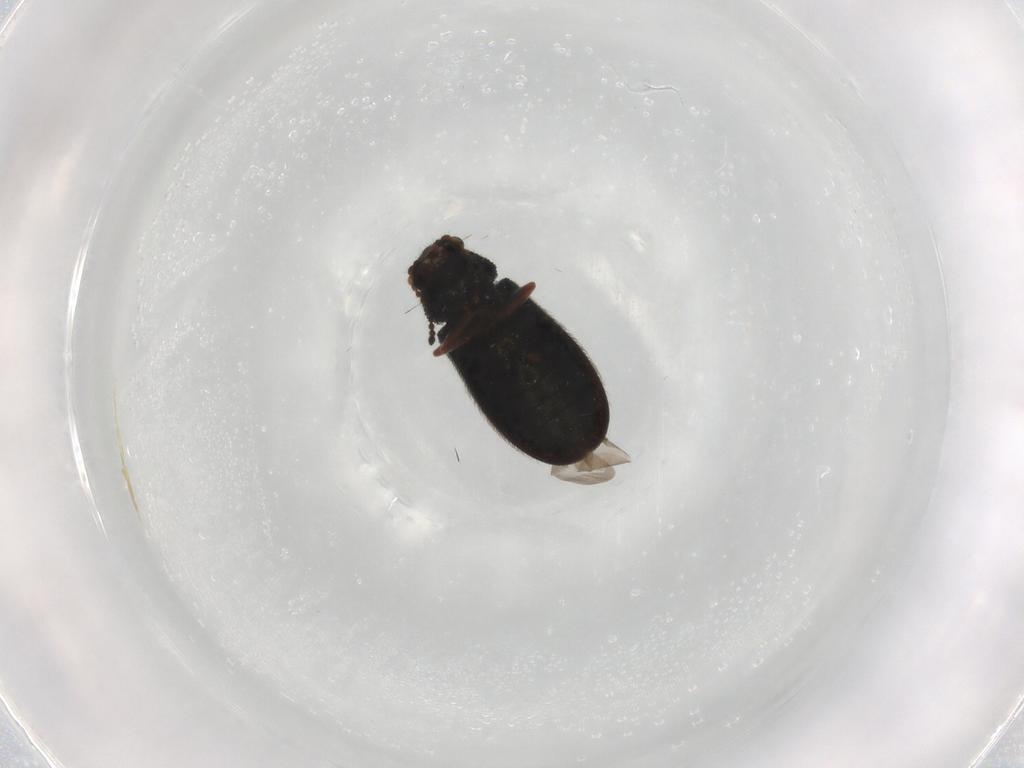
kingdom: Animalia
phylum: Arthropoda
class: Insecta
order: Coleoptera
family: Melyridae
